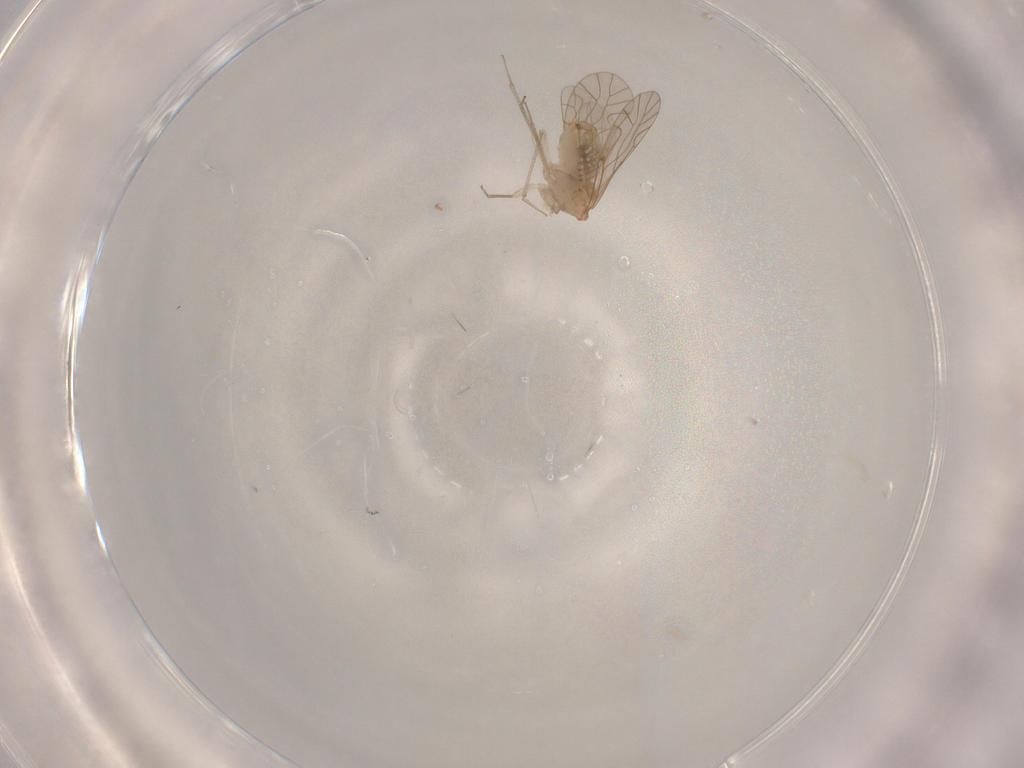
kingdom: Animalia
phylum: Arthropoda
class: Insecta
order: Psocodea
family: Lachesillidae
